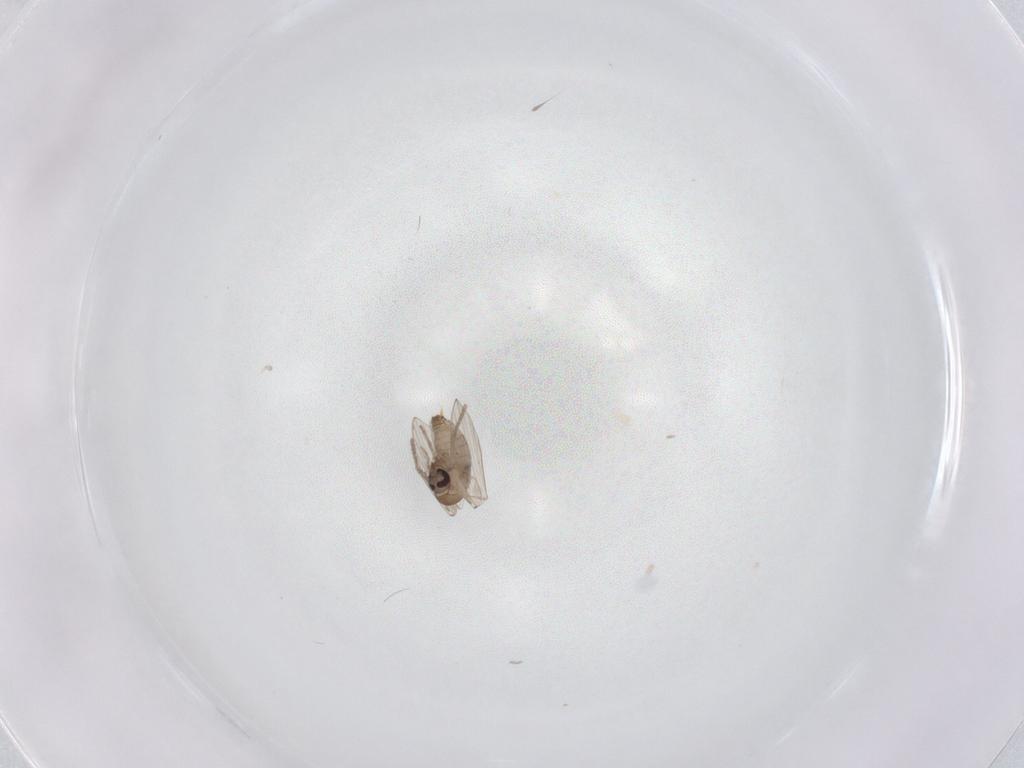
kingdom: Animalia
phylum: Arthropoda
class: Insecta
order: Diptera
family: Psychodidae
